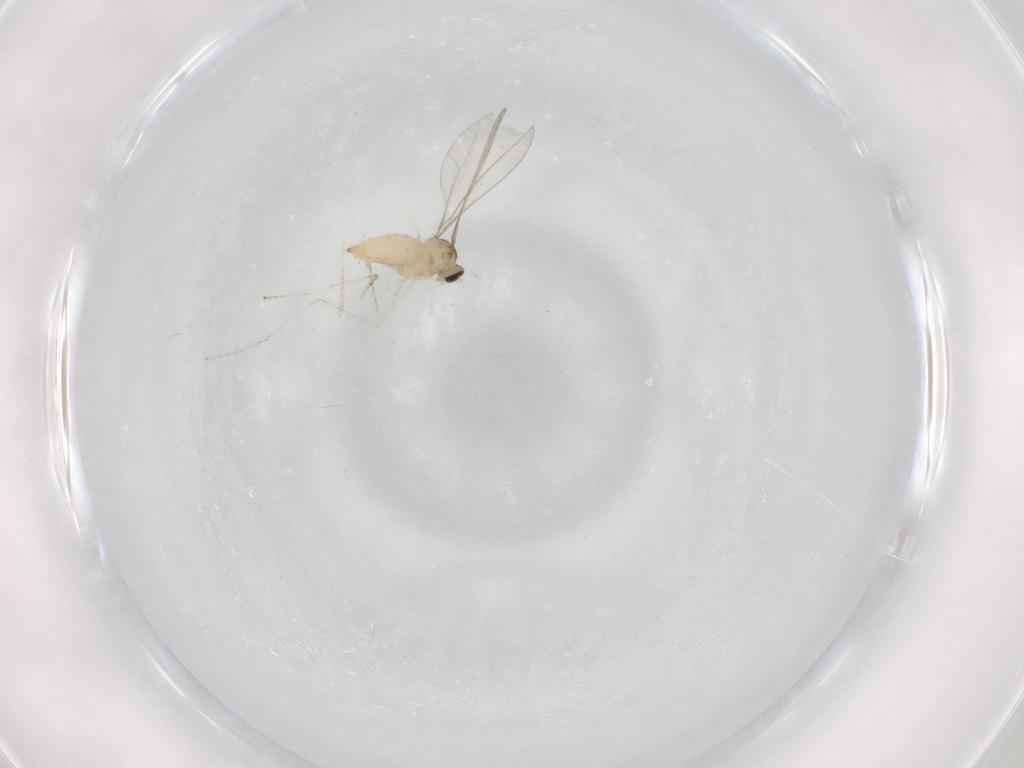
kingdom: Animalia
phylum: Arthropoda
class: Insecta
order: Diptera
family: Cecidomyiidae
